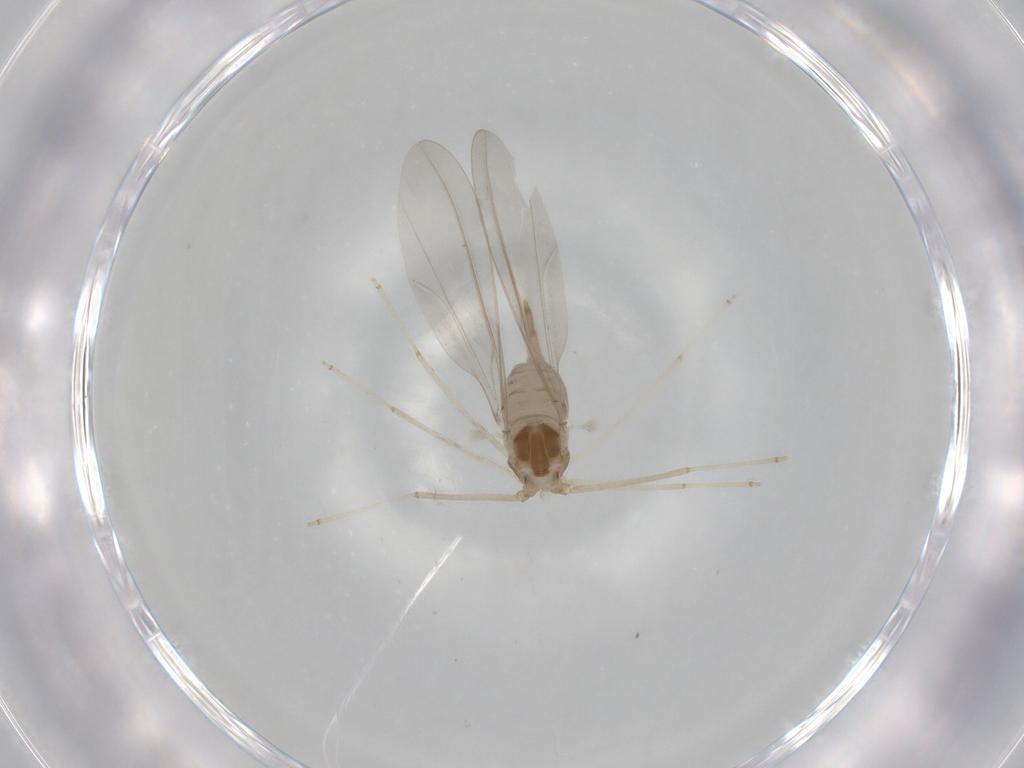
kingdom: Animalia
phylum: Arthropoda
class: Insecta
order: Diptera
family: Cecidomyiidae
